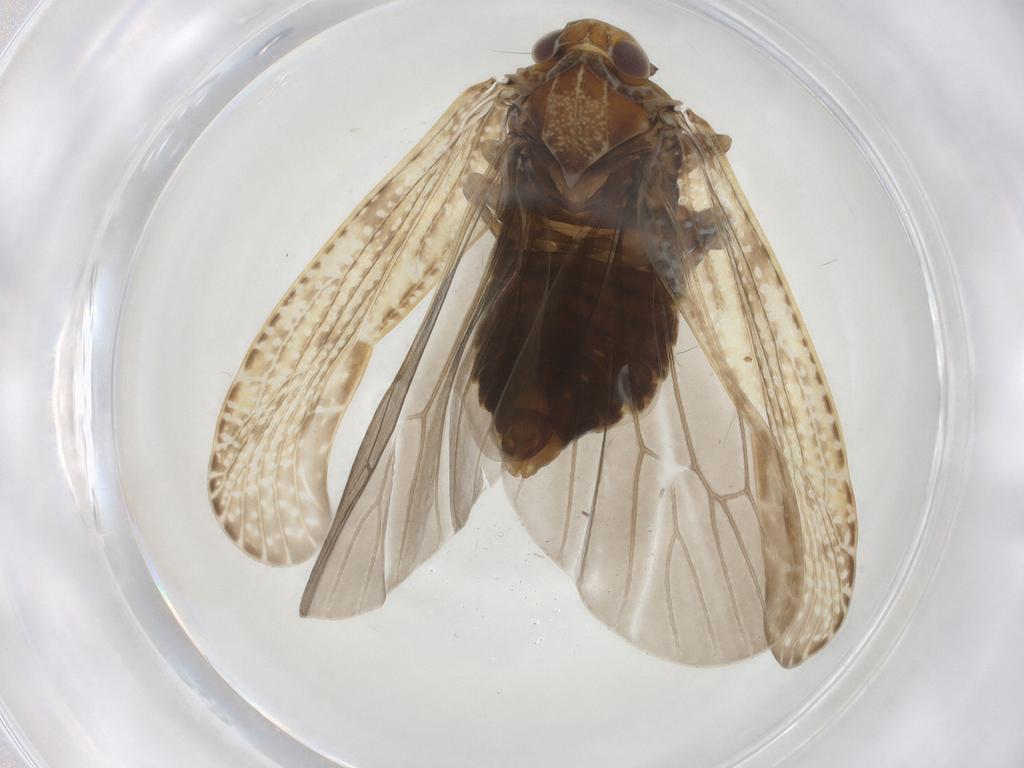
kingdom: Animalia
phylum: Arthropoda
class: Insecta
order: Hemiptera
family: Achilidae
